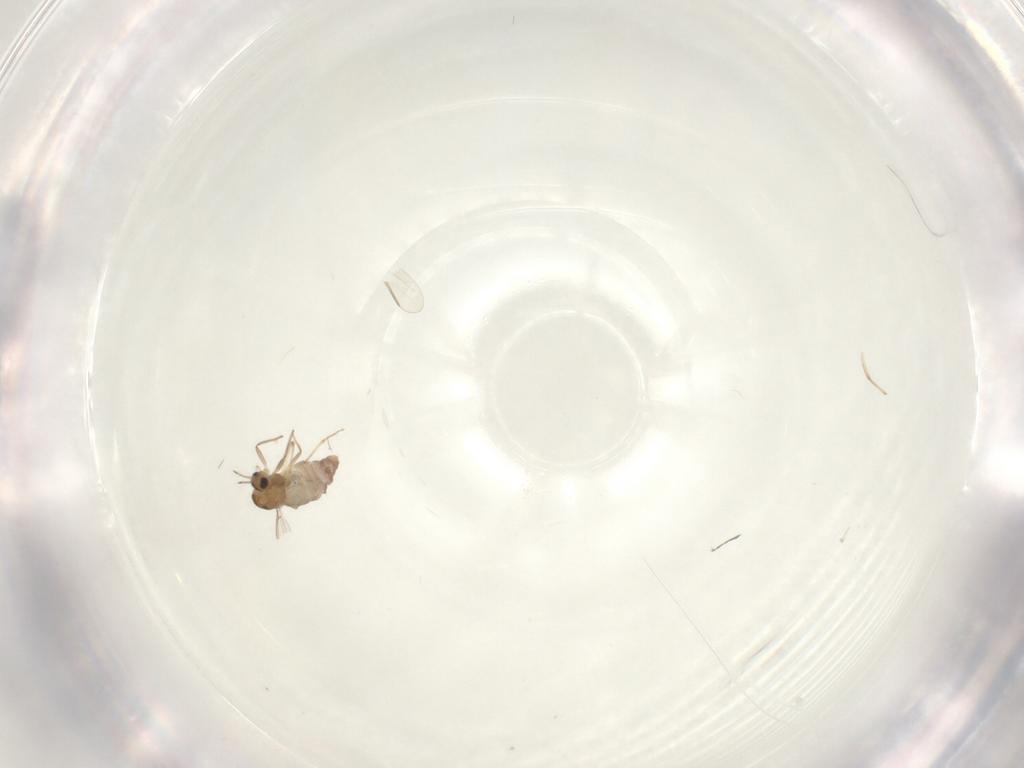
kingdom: Animalia
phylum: Arthropoda
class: Insecta
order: Diptera
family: Chironomidae
